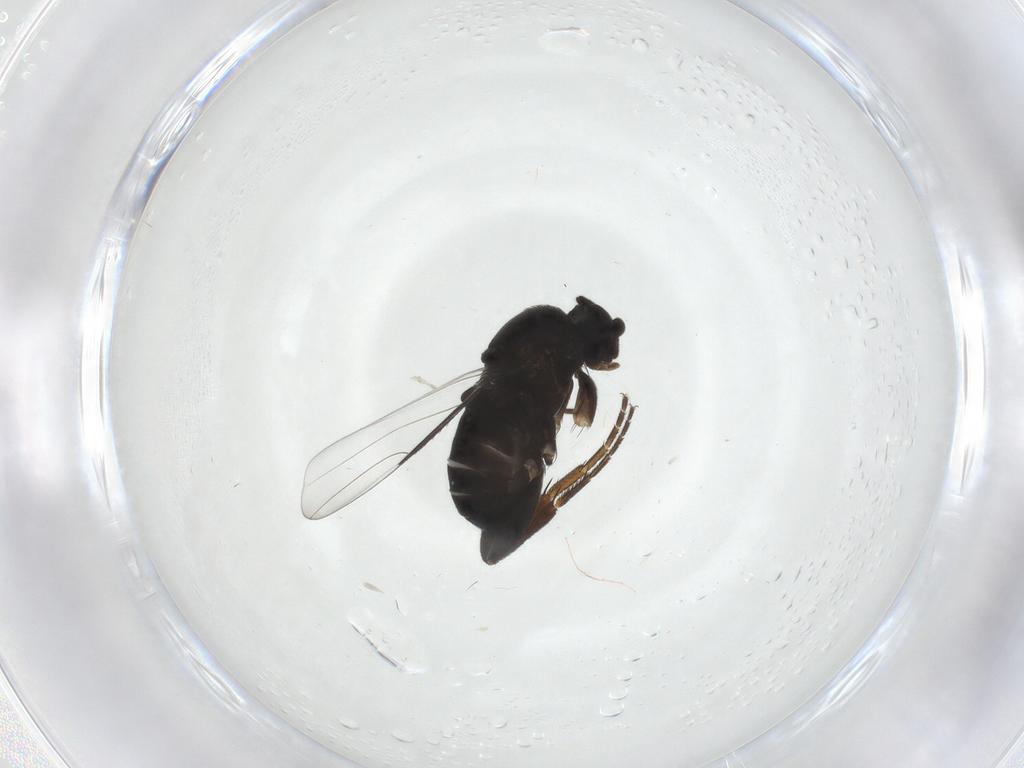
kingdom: Animalia
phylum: Arthropoda
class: Insecta
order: Diptera
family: Phoridae
